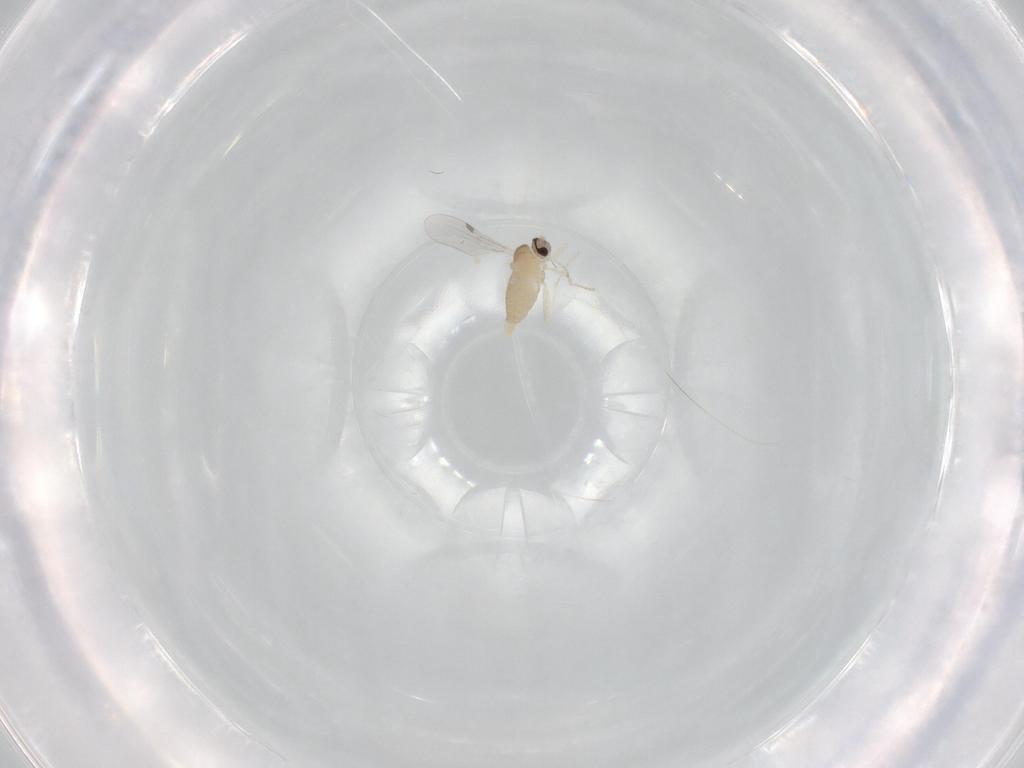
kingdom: Animalia
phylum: Arthropoda
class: Insecta
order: Diptera
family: Cecidomyiidae
